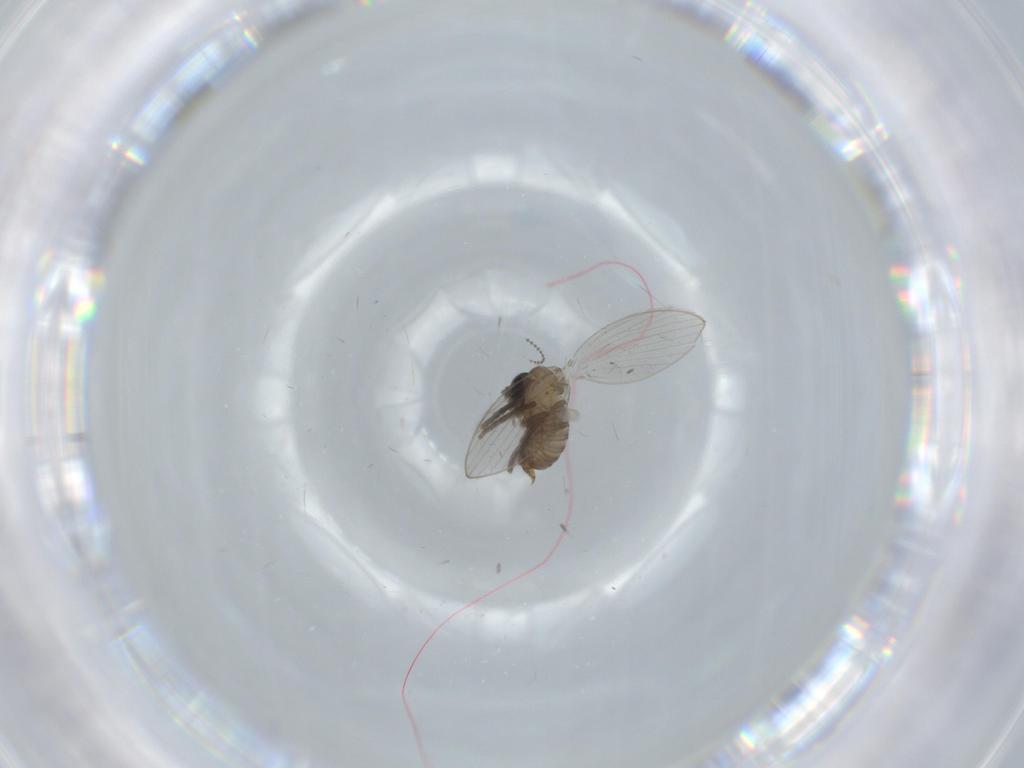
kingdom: Animalia
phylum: Arthropoda
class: Insecta
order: Diptera
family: Cecidomyiidae
